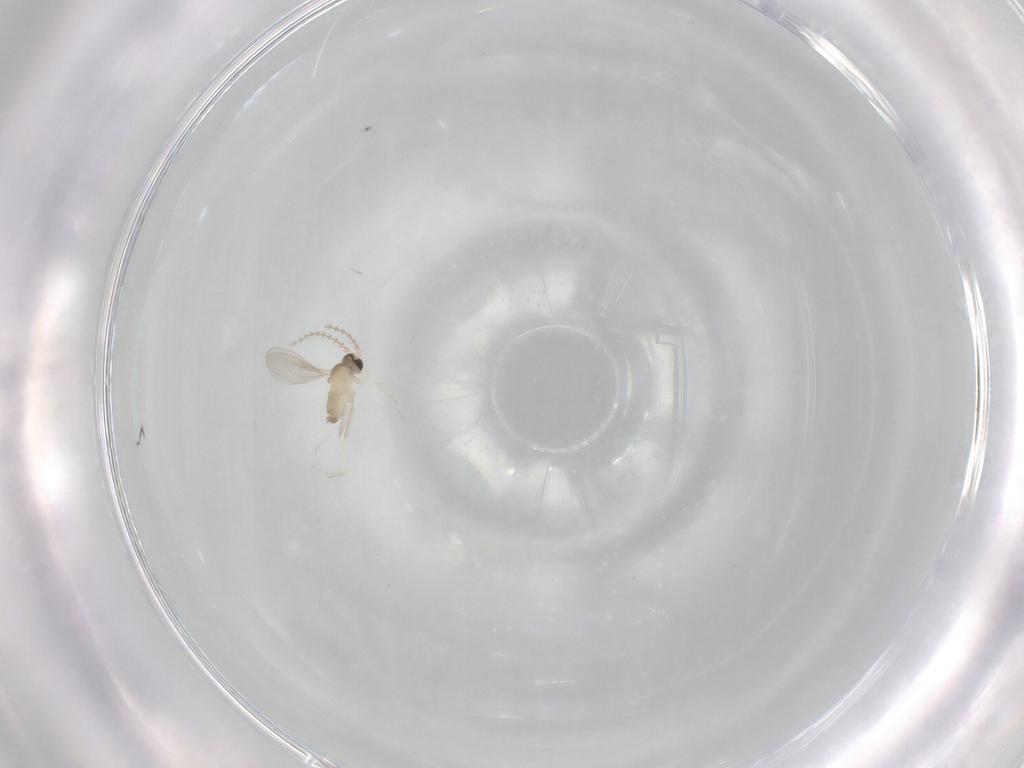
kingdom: Animalia
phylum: Arthropoda
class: Insecta
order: Diptera
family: Cecidomyiidae
